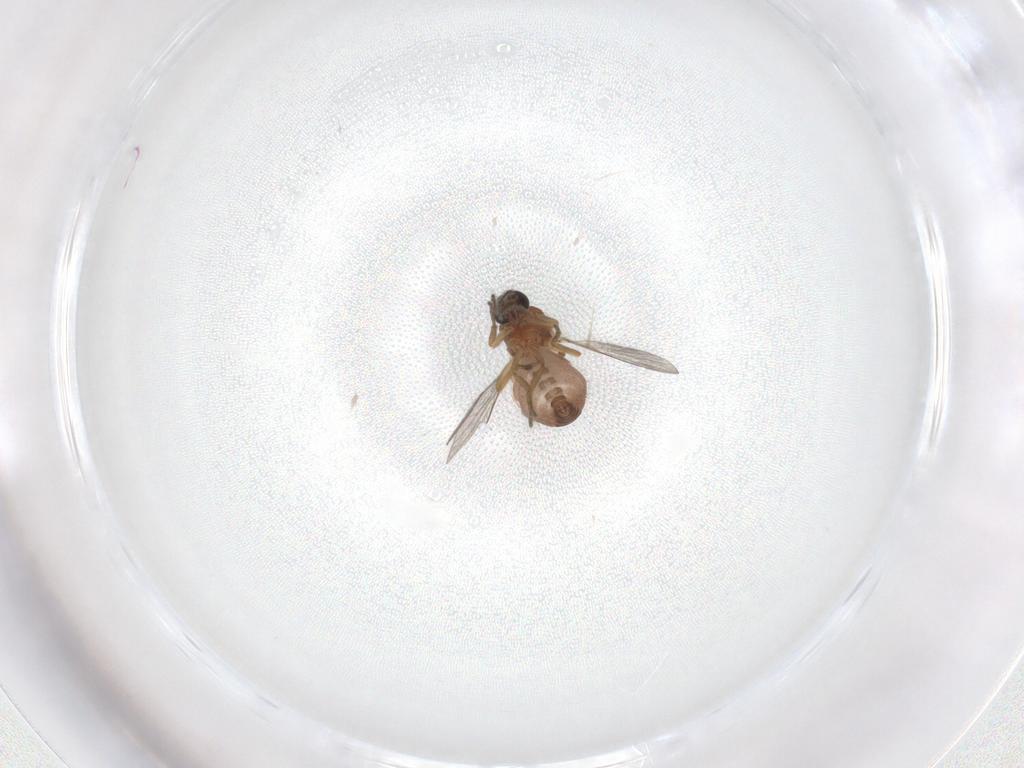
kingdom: Animalia
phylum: Arthropoda
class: Insecta
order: Diptera
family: Ceratopogonidae
